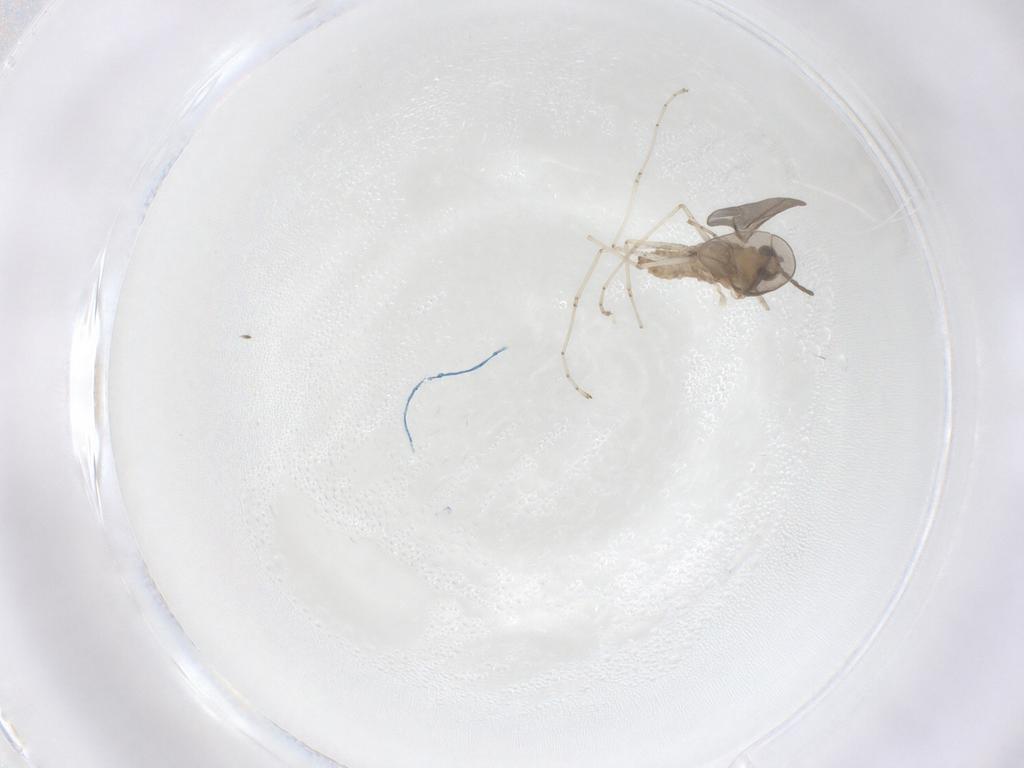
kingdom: Animalia
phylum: Arthropoda
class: Insecta
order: Diptera
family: Sciaridae
